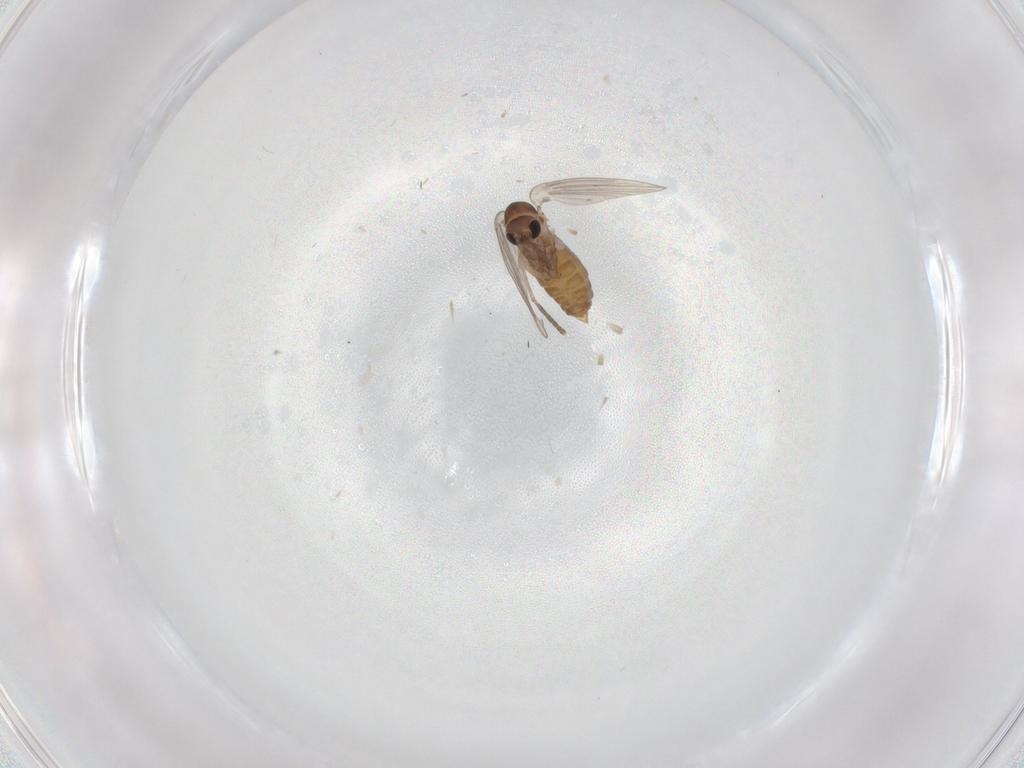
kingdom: Animalia
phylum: Arthropoda
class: Insecta
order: Diptera
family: Psychodidae
